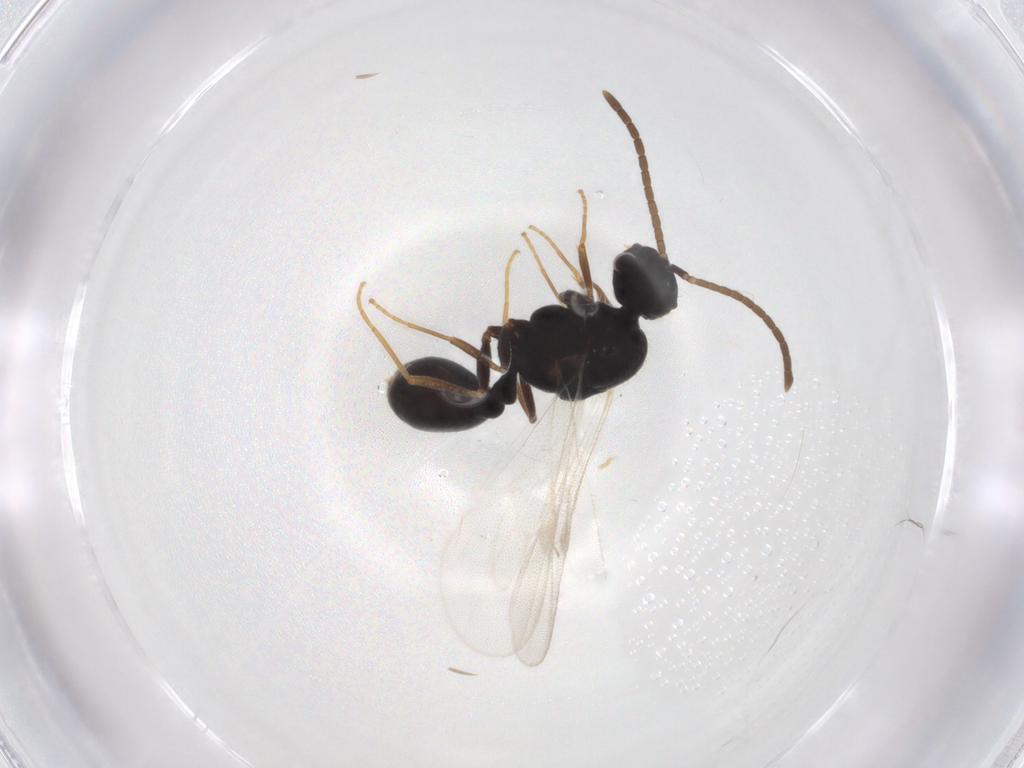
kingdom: Animalia
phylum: Arthropoda
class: Insecta
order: Hymenoptera
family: Formicidae
